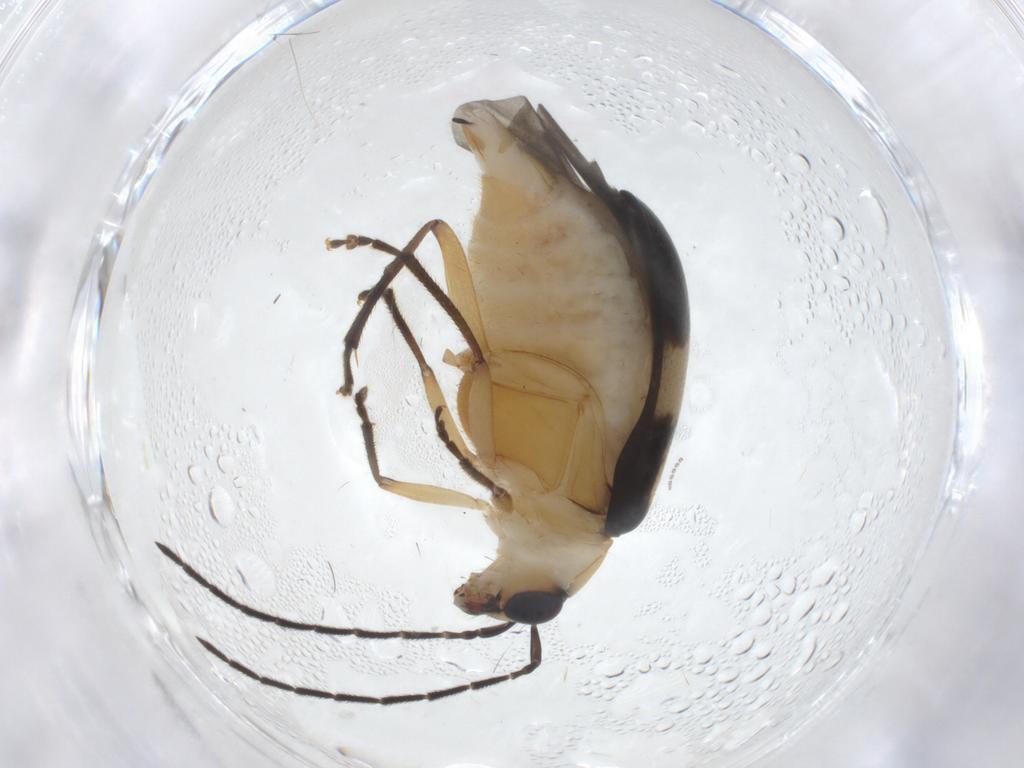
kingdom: Animalia
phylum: Arthropoda
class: Insecta
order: Coleoptera
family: Chrysomelidae
